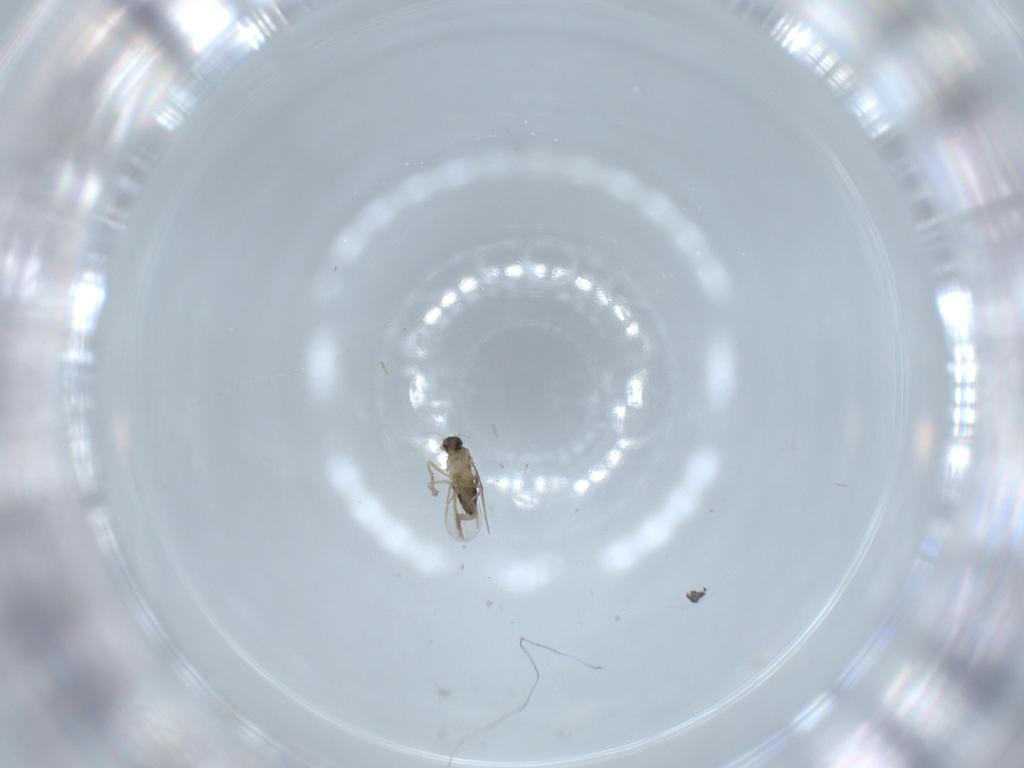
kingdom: Animalia
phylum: Arthropoda
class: Insecta
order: Diptera
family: Phoridae
